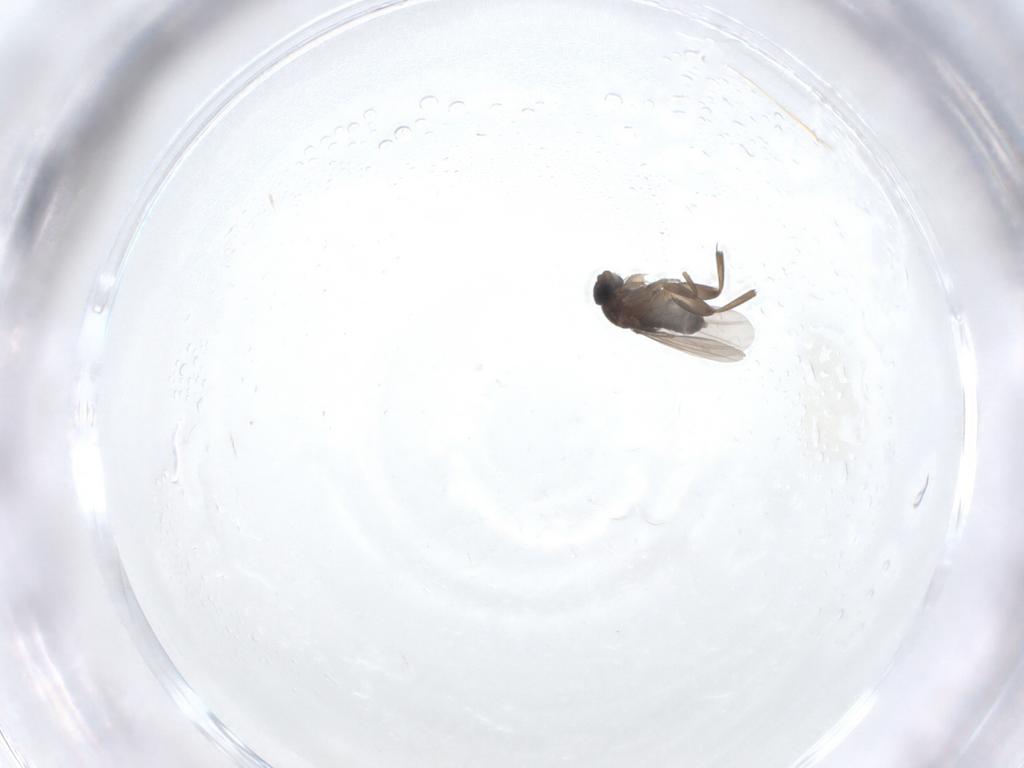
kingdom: Animalia
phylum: Arthropoda
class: Insecta
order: Diptera
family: Phoridae
